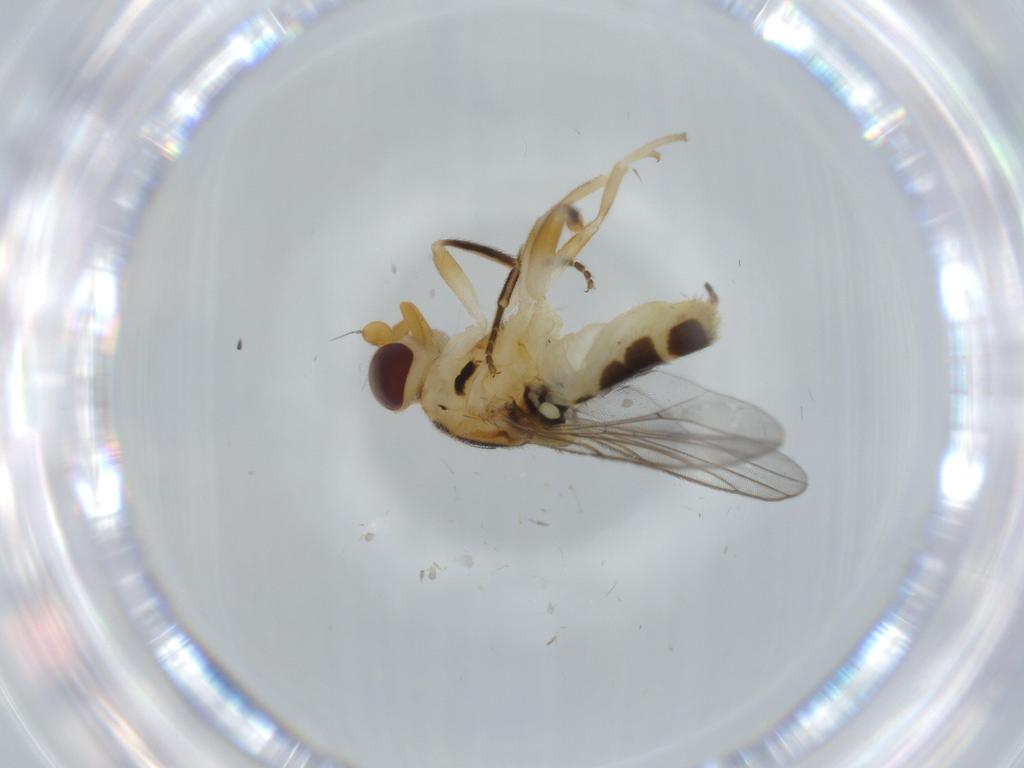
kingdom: Animalia
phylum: Arthropoda
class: Insecta
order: Diptera
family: Chloropidae
